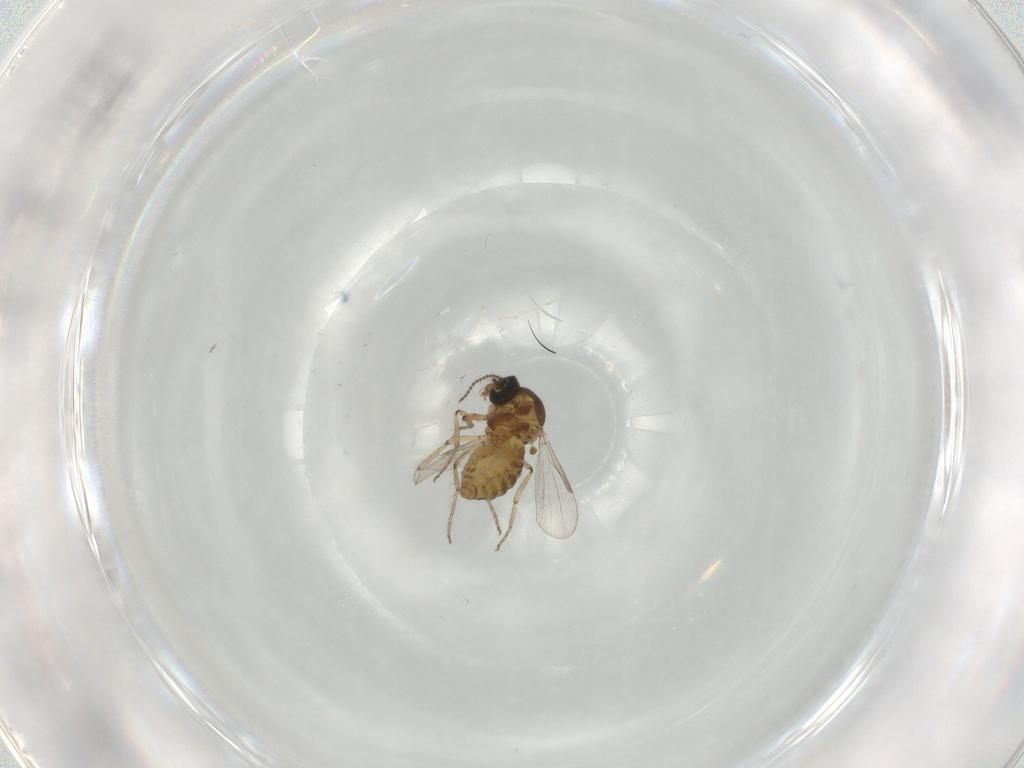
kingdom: Animalia
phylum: Arthropoda
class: Insecta
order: Diptera
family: Ceratopogonidae
